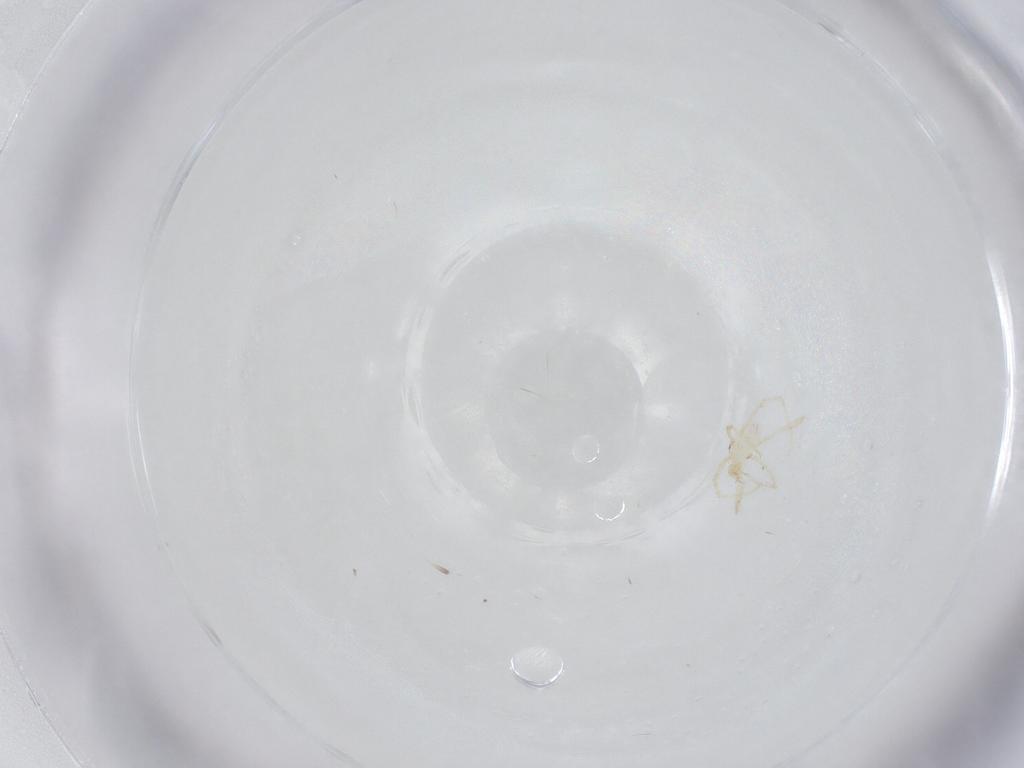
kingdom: Animalia
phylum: Arthropoda
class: Arachnida
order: Trombidiformes
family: Erythraeidae
